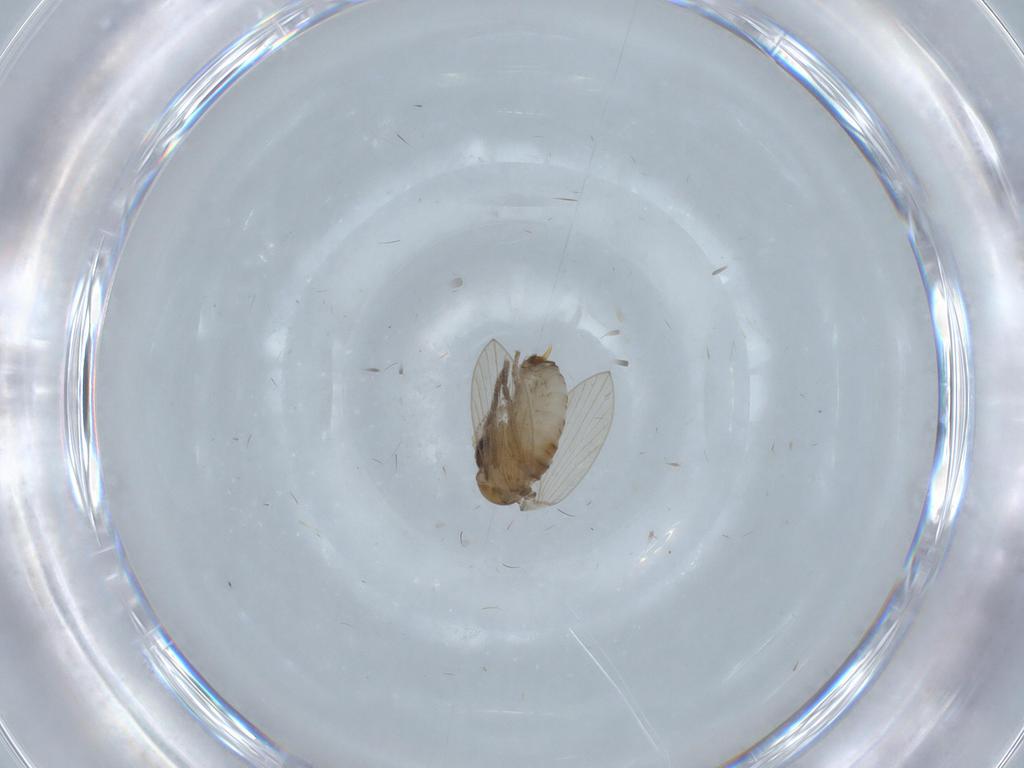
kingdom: Animalia
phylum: Arthropoda
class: Insecta
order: Diptera
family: Psychodidae
